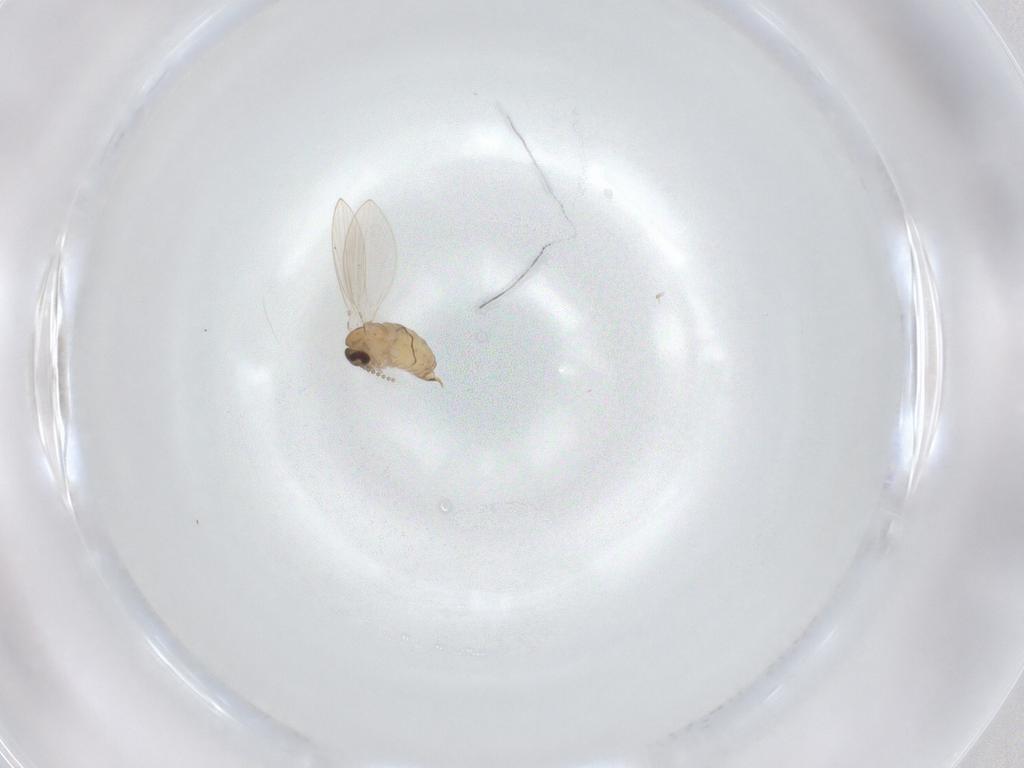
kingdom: Animalia
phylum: Arthropoda
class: Insecta
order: Diptera
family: Psychodidae
